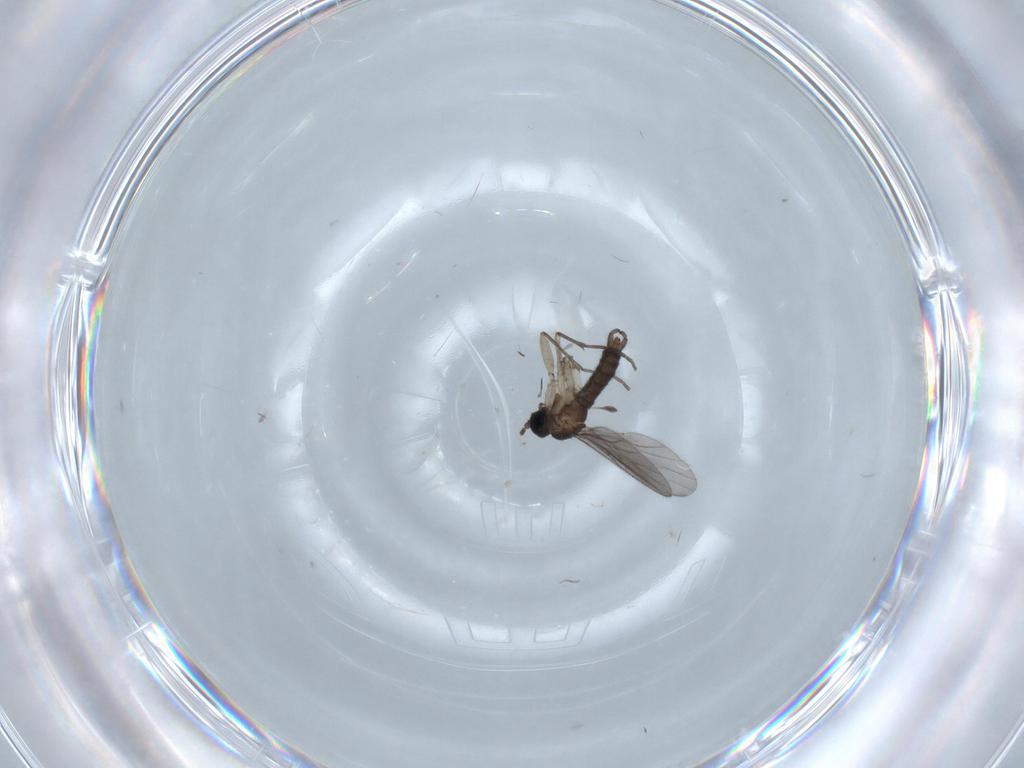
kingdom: Animalia
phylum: Arthropoda
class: Insecta
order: Diptera
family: Sciaridae
